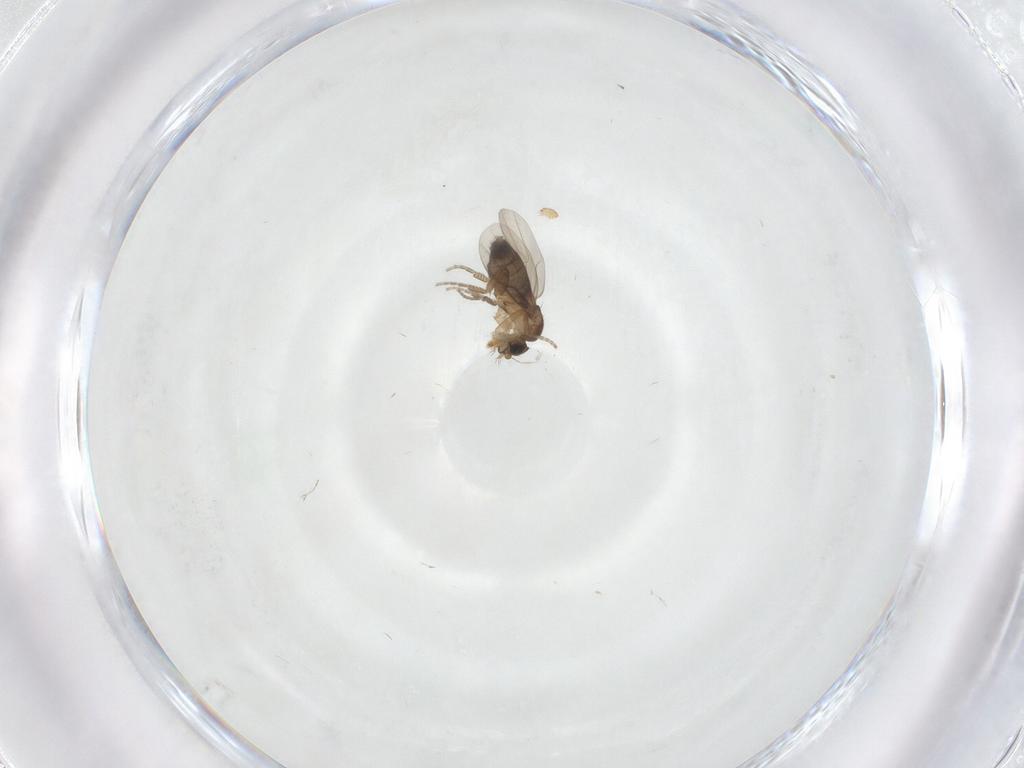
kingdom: Animalia
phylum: Arthropoda
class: Insecta
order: Diptera
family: Phoridae
